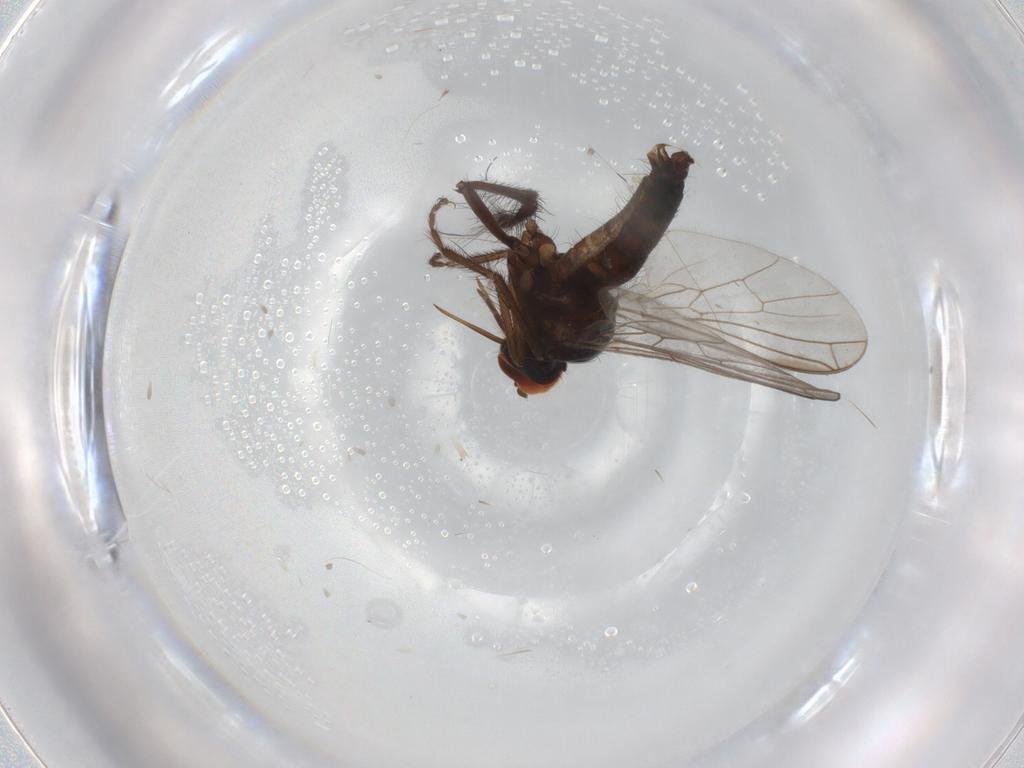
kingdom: Animalia
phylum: Arthropoda
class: Insecta
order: Diptera
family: Empididae
